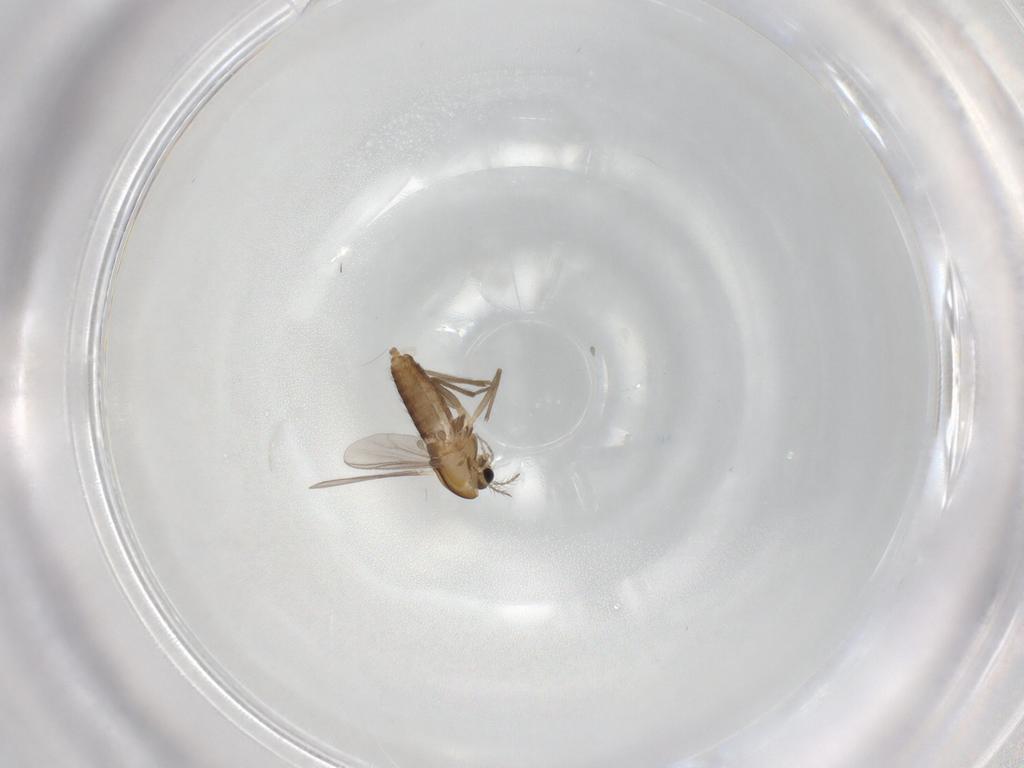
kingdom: Animalia
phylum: Arthropoda
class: Insecta
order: Diptera
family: Chironomidae
